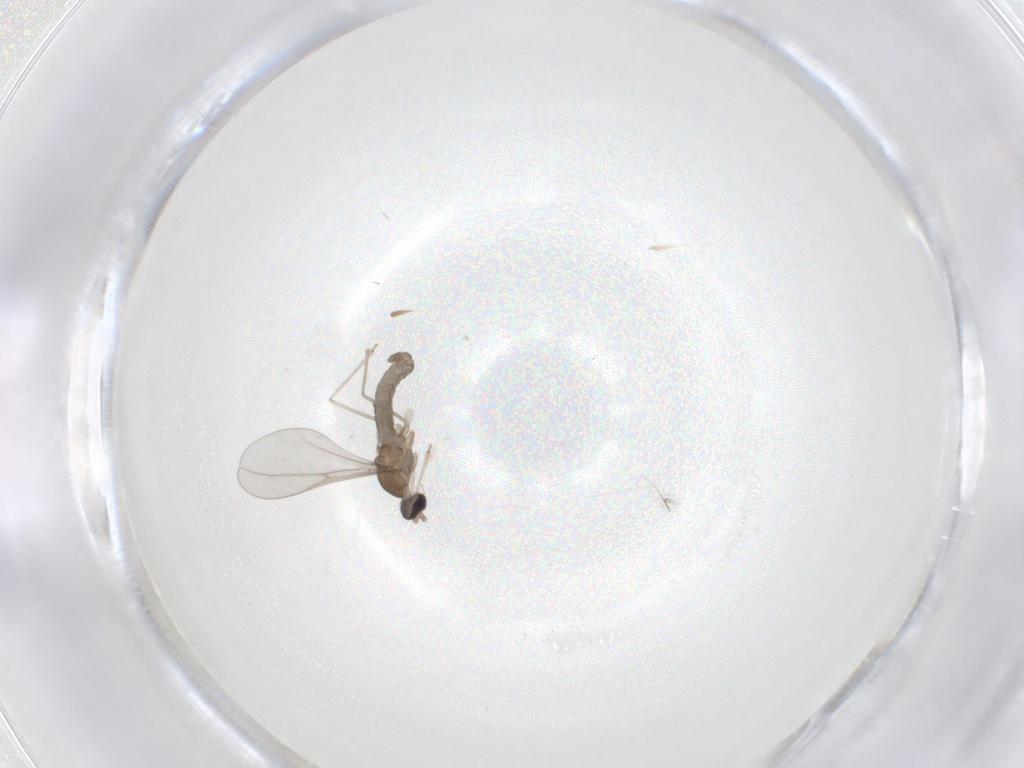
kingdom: Animalia
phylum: Arthropoda
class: Insecta
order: Diptera
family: Cecidomyiidae
